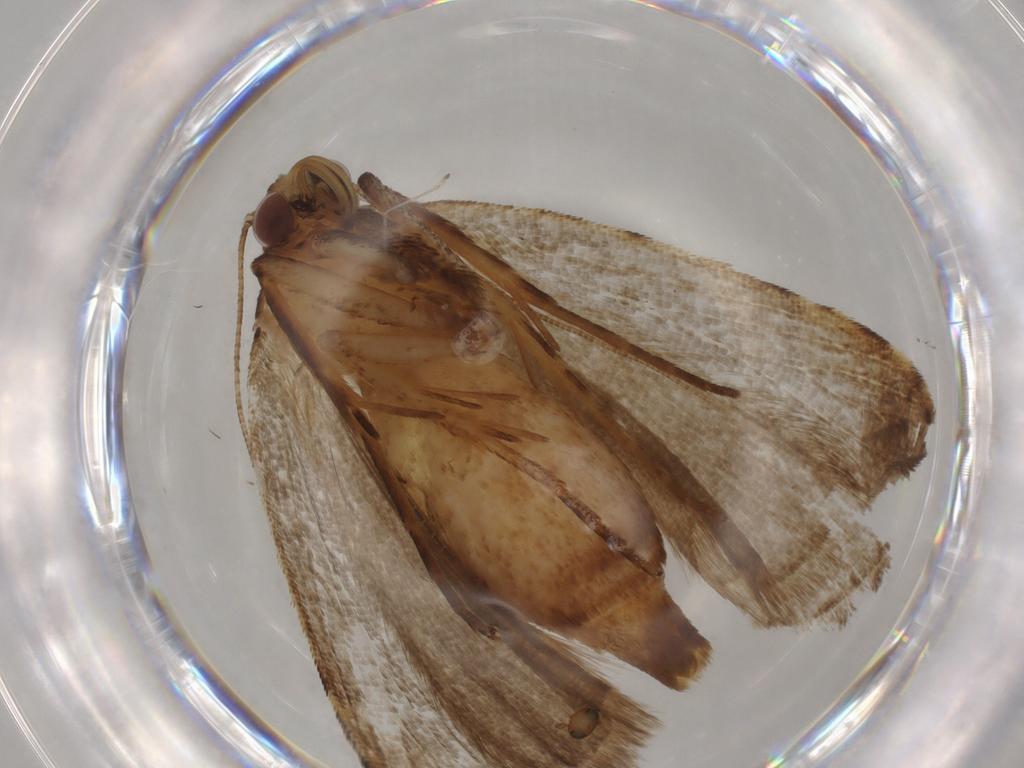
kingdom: Animalia
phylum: Arthropoda
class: Insecta
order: Lepidoptera
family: Erebidae
